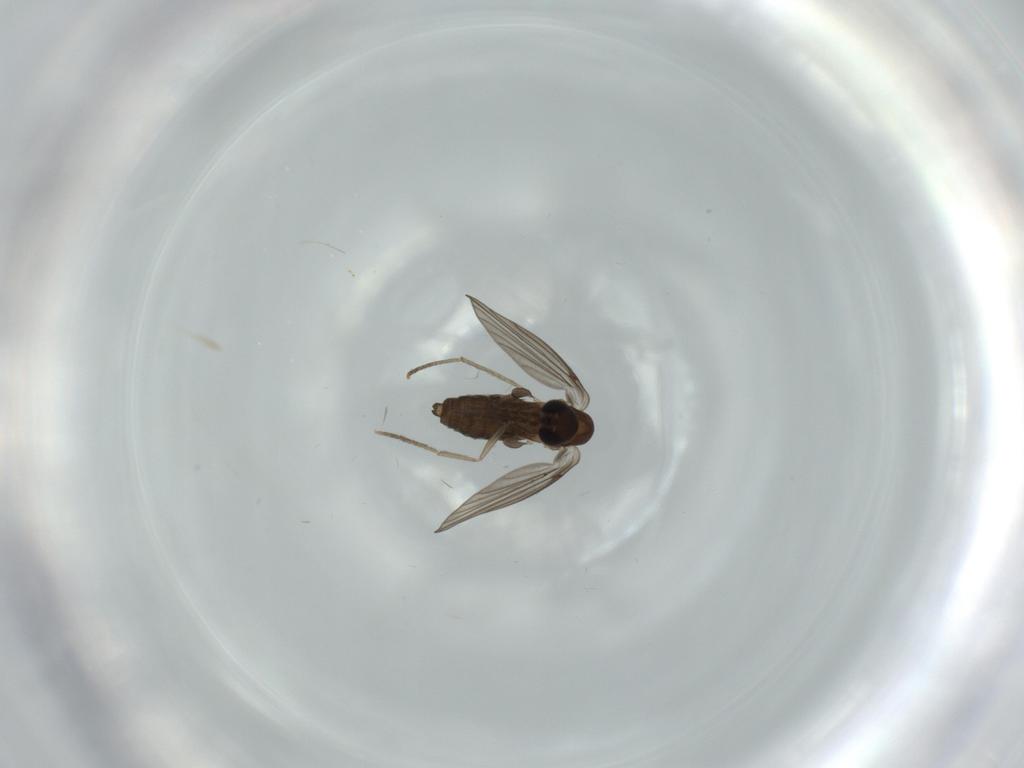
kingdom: Animalia
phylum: Arthropoda
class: Insecta
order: Diptera
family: Psychodidae
